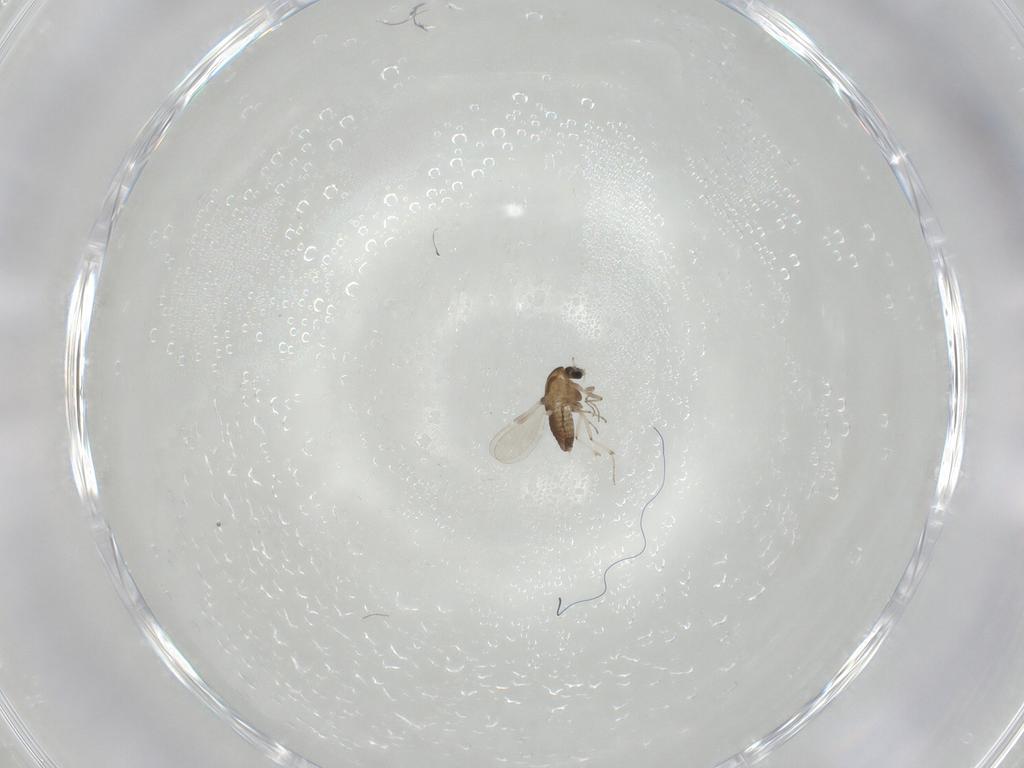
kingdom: Animalia
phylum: Arthropoda
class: Insecta
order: Diptera
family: Chironomidae
